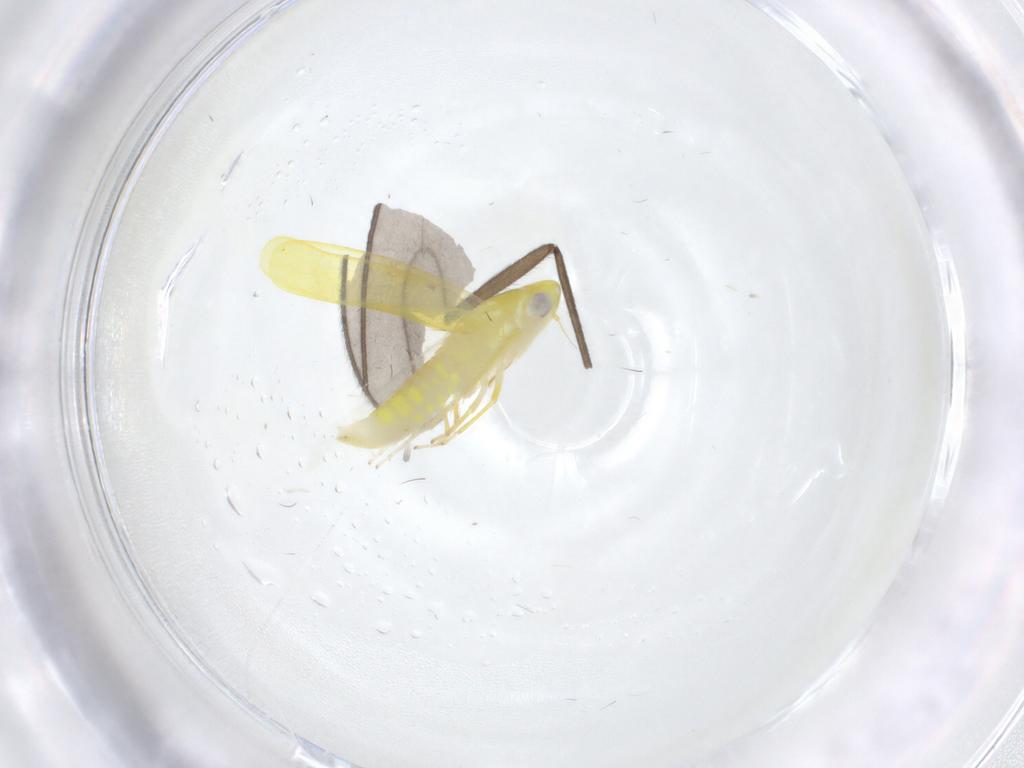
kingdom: Animalia
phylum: Arthropoda
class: Insecta
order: Hemiptera
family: Cicadellidae
